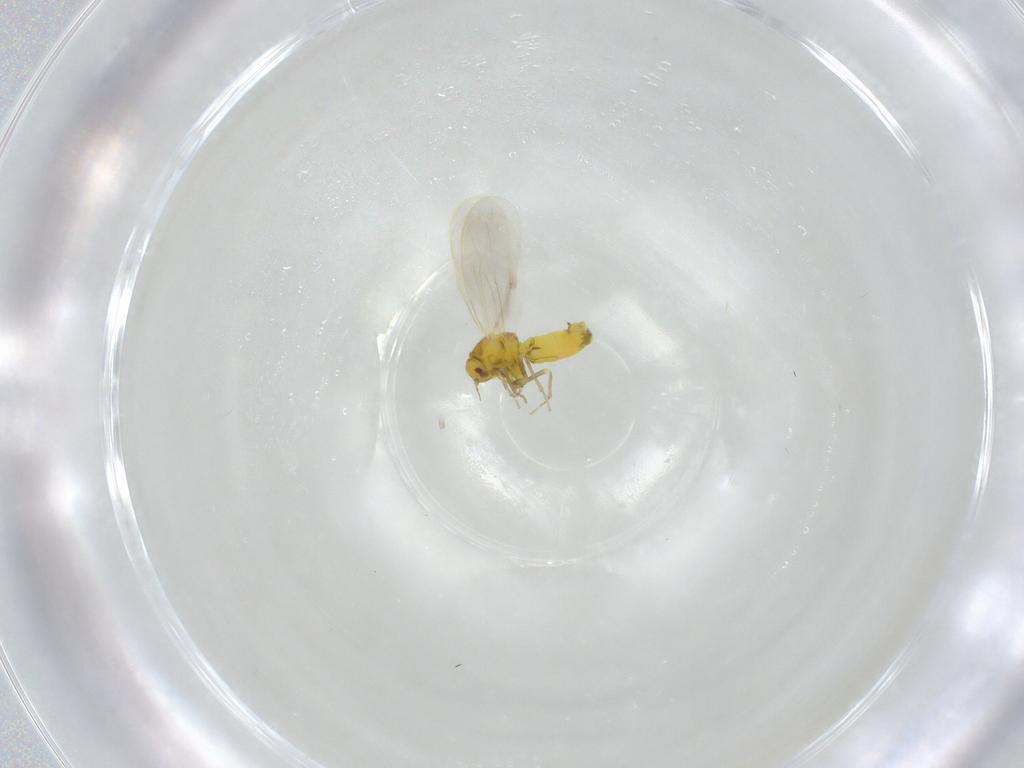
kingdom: Animalia
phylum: Arthropoda
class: Insecta
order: Hemiptera
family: Aleyrodidae
